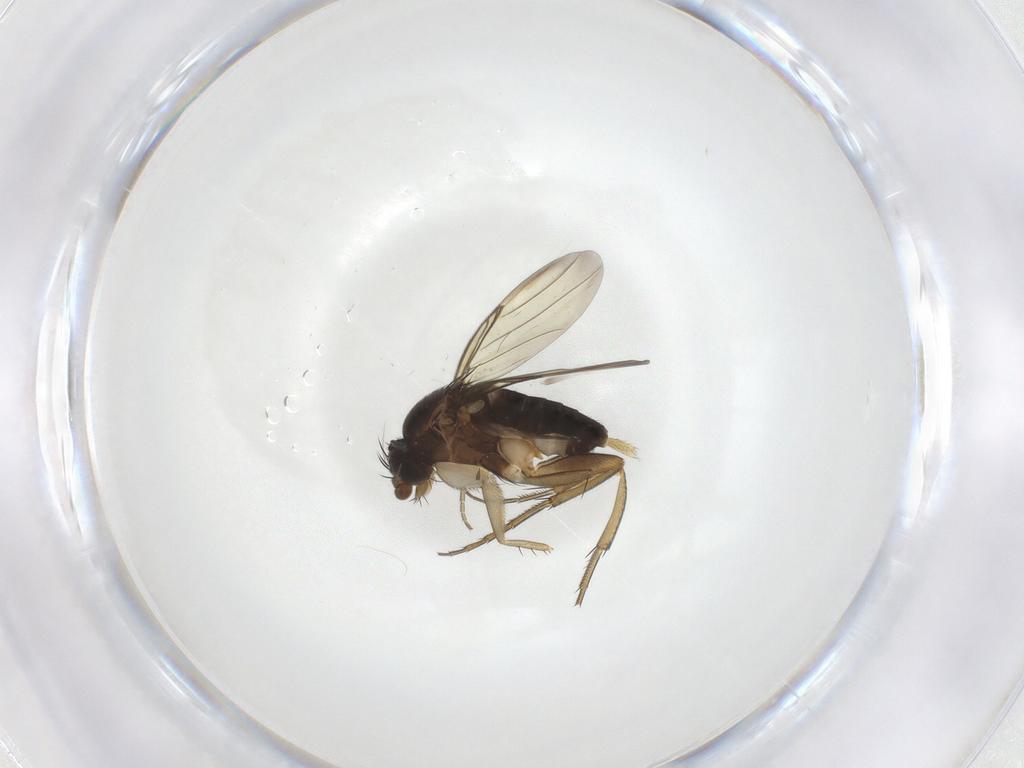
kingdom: Animalia
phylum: Arthropoda
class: Insecta
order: Diptera
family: Phoridae
